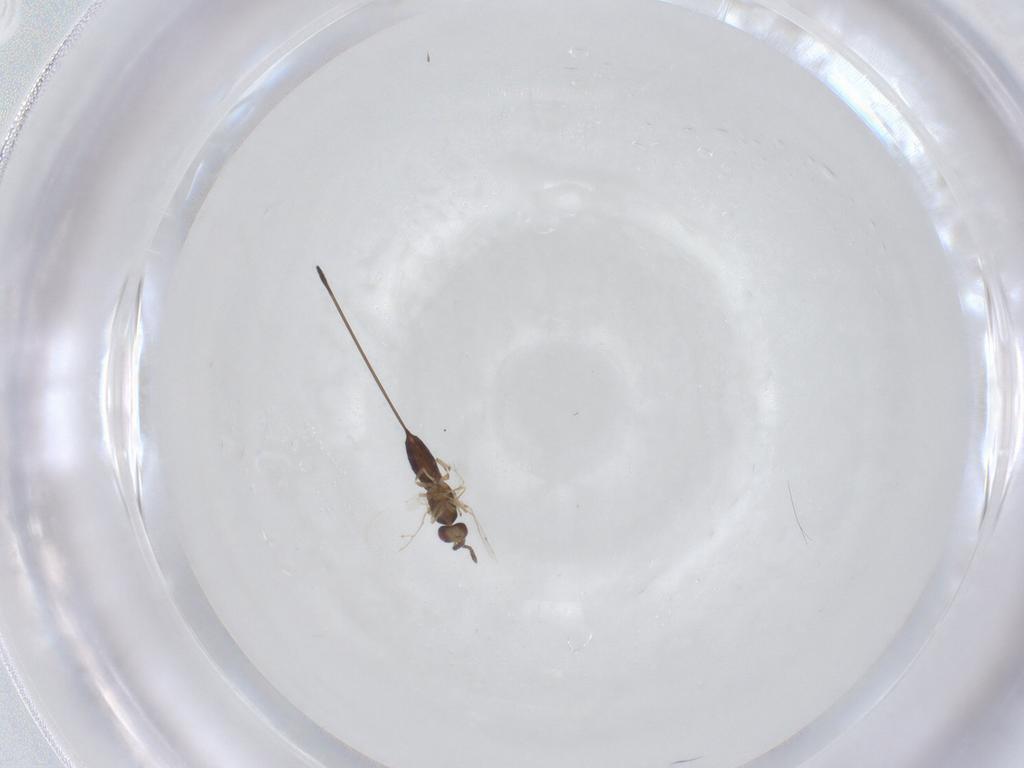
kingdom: Animalia
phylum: Arthropoda
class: Insecta
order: Hymenoptera
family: Pteromalidae
